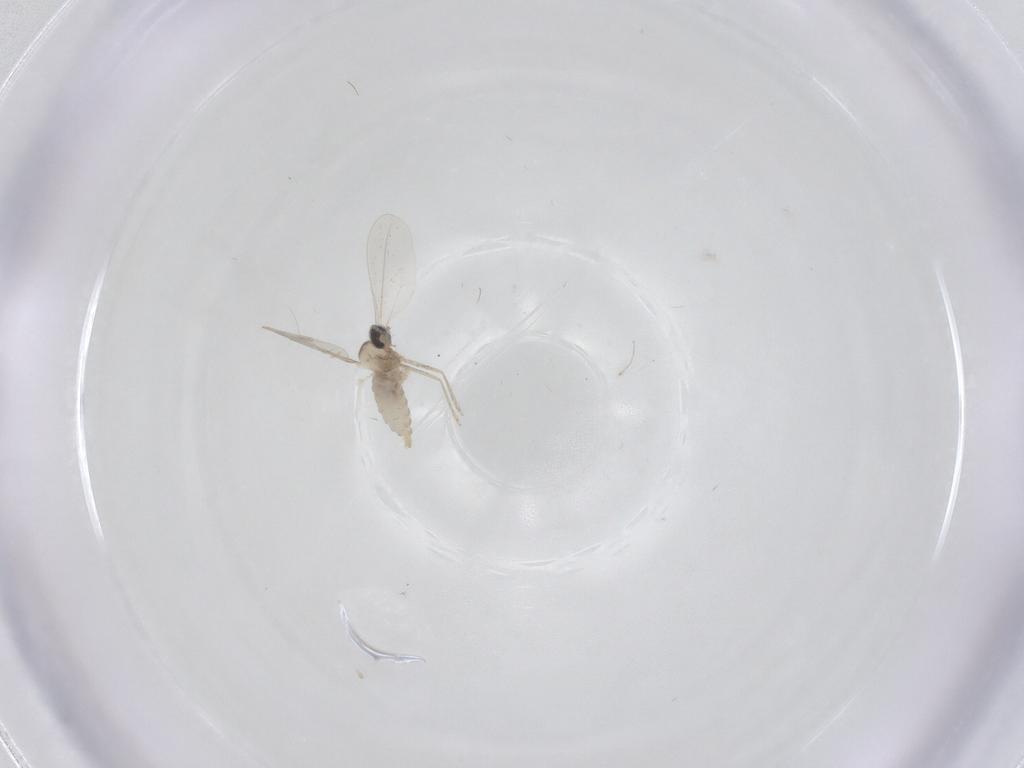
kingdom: Animalia
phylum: Arthropoda
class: Insecta
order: Diptera
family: Cecidomyiidae
